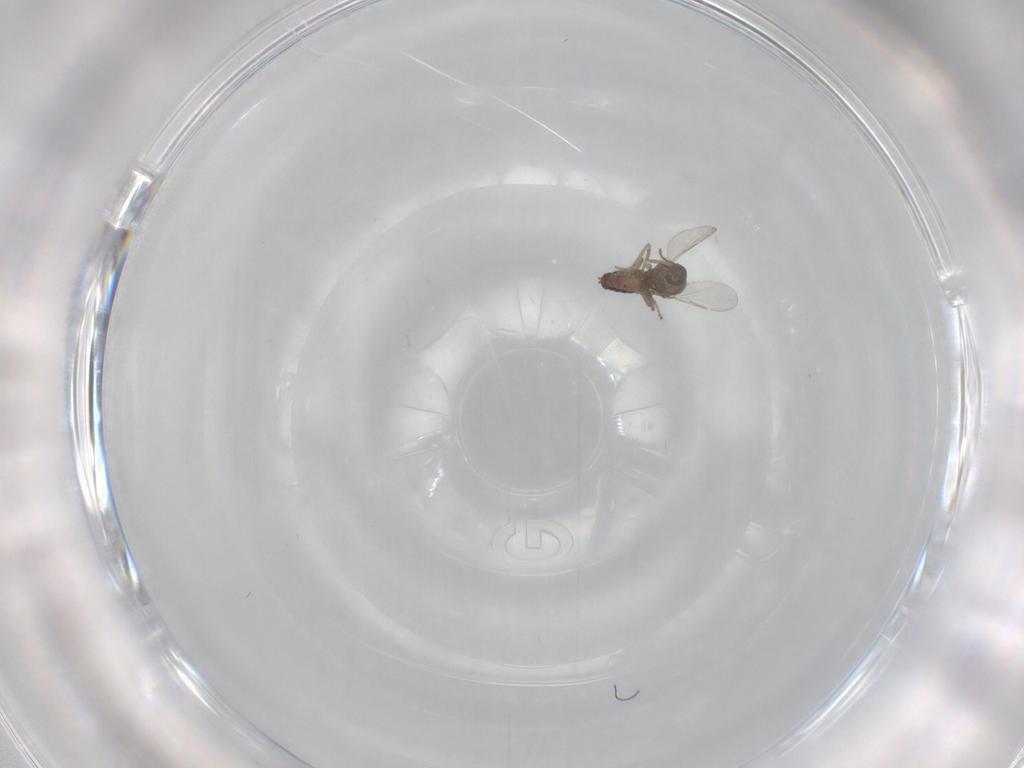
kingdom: Animalia
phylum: Arthropoda
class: Insecta
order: Diptera
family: Ceratopogonidae
